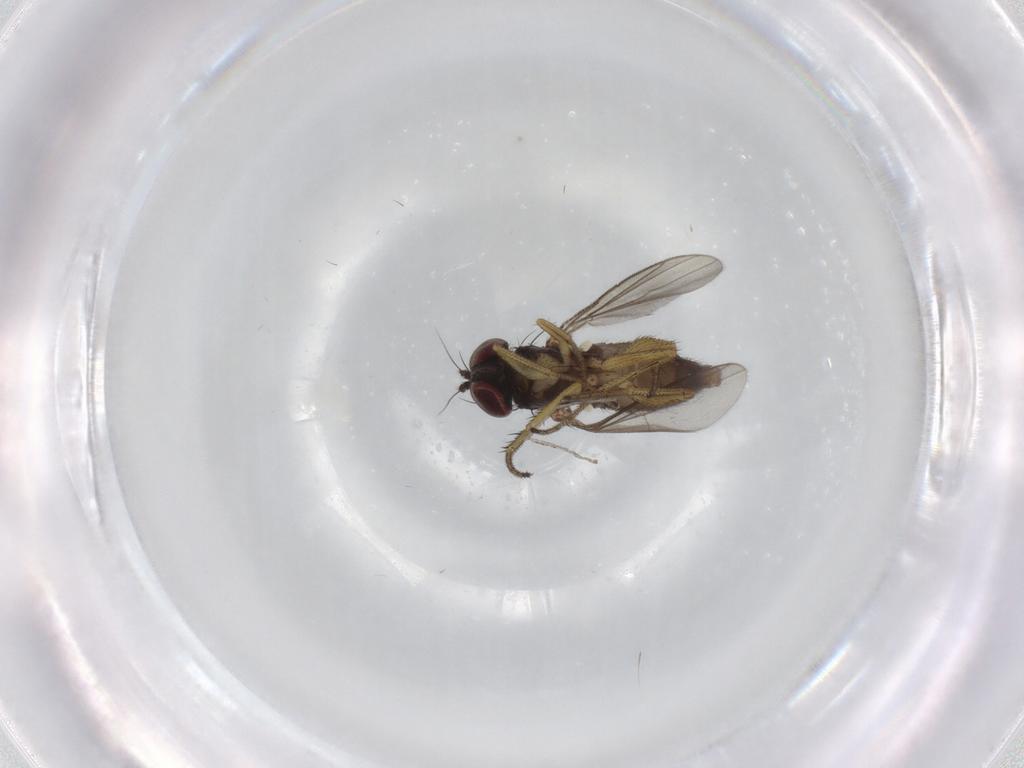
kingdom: Animalia
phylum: Arthropoda
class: Insecta
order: Diptera
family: Dolichopodidae
